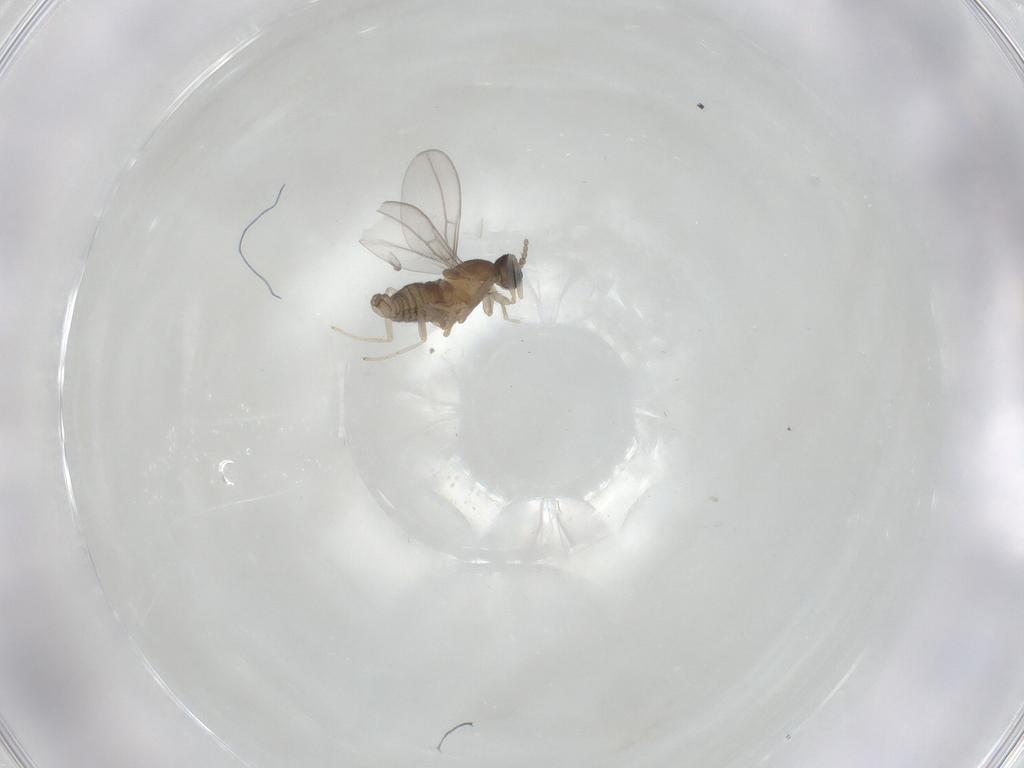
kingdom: Animalia
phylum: Arthropoda
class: Insecta
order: Diptera
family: Cecidomyiidae
